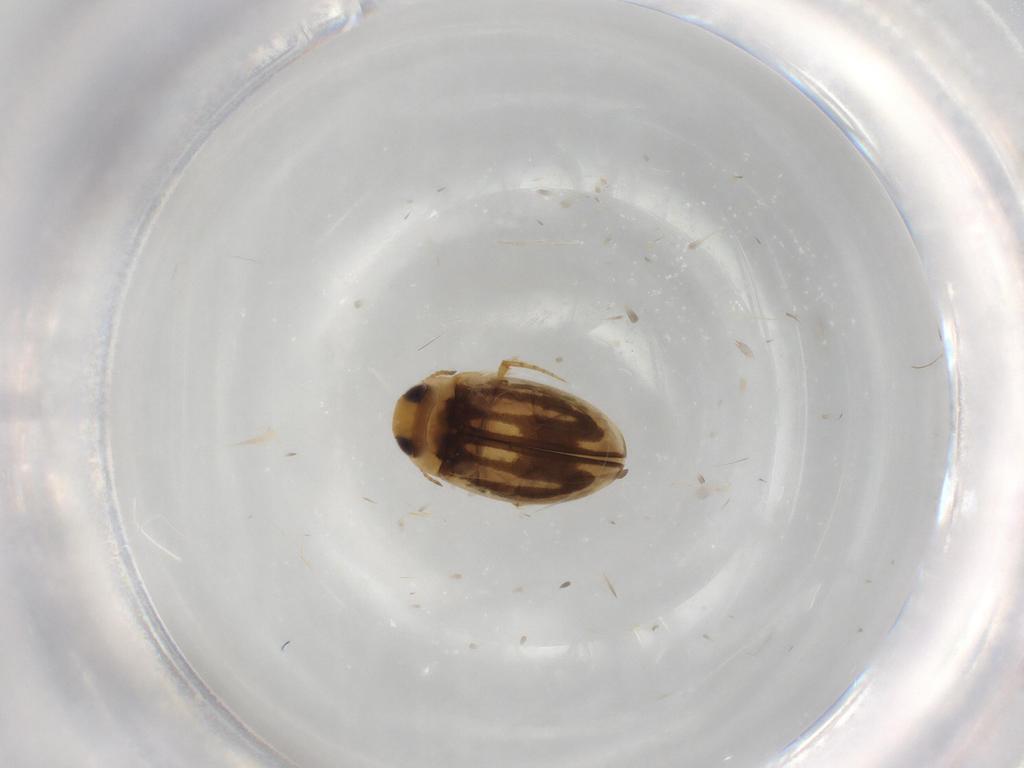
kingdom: Animalia
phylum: Arthropoda
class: Insecta
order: Coleoptera
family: Dytiscidae
